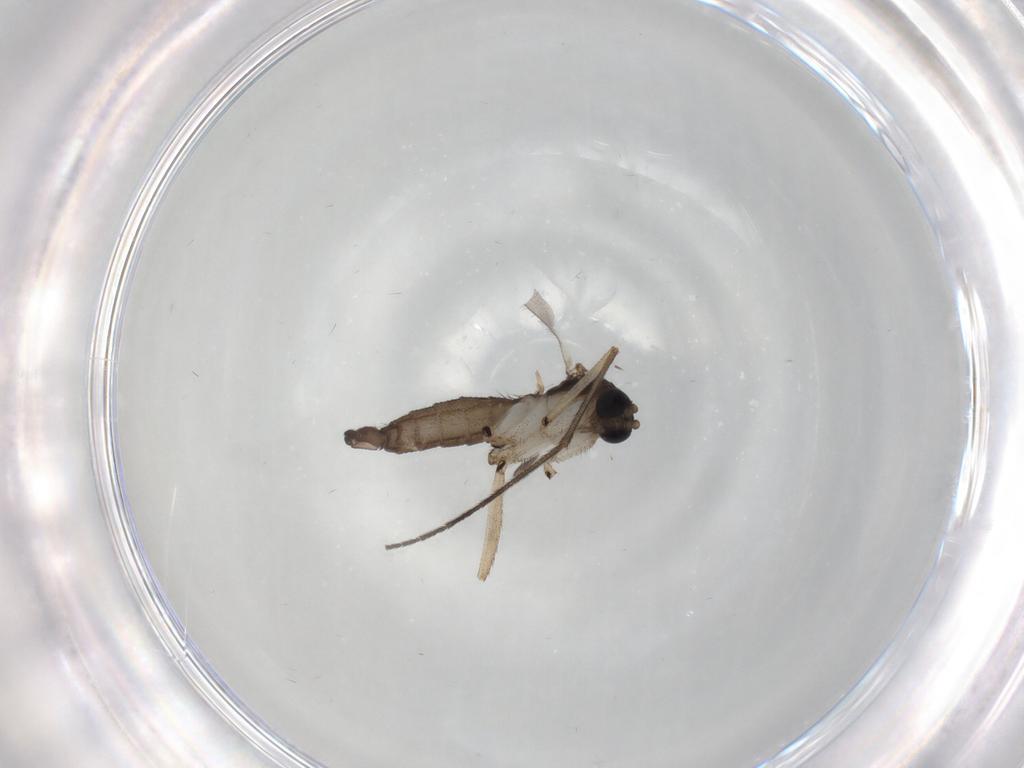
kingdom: Animalia
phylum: Arthropoda
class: Insecta
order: Diptera
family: Sciaridae
